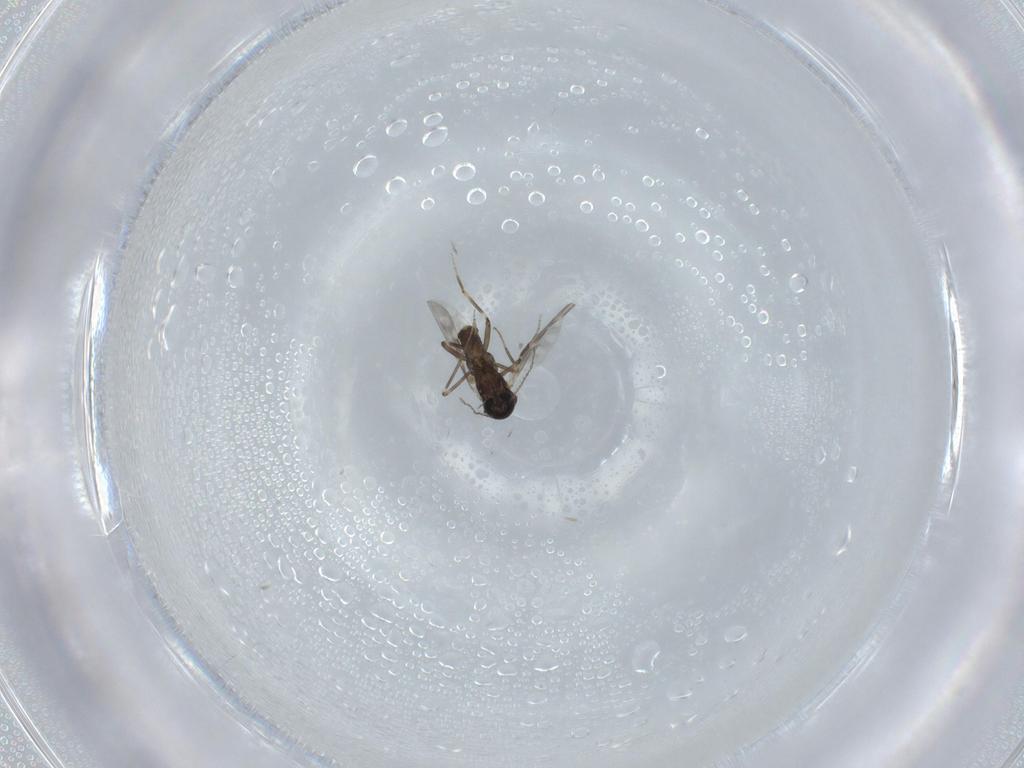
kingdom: Animalia
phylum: Arthropoda
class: Insecta
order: Diptera
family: Ceratopogonidae
